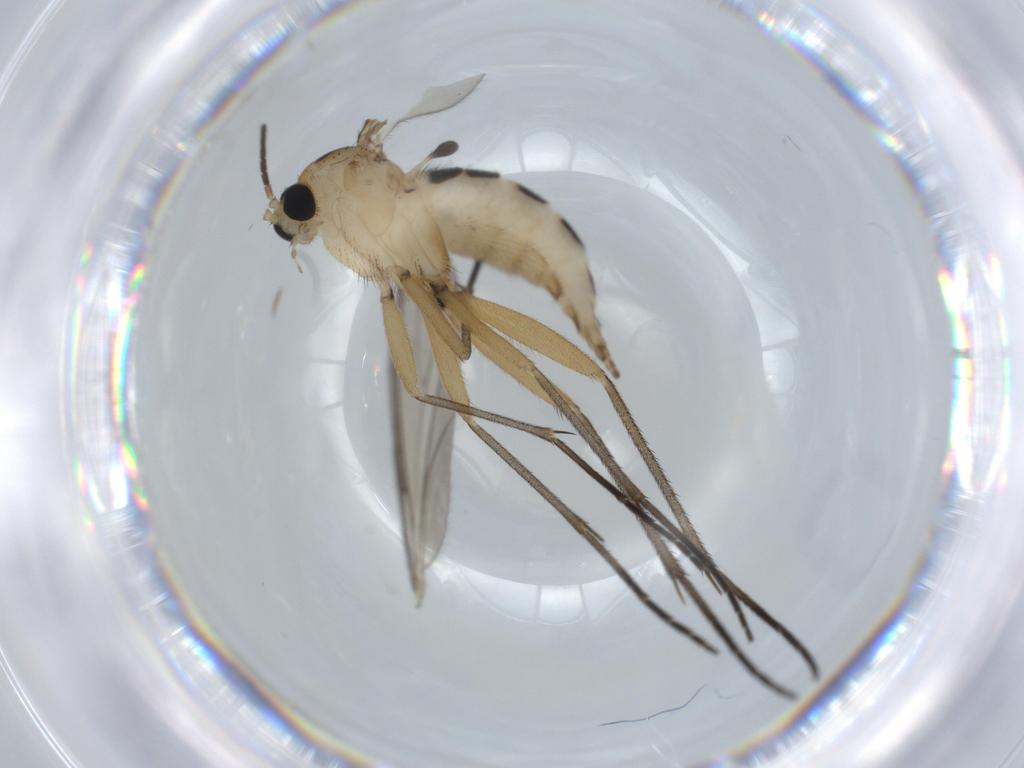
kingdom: Animalia
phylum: Arthropoda
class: Insecta
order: Diptera
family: Sciaridae
